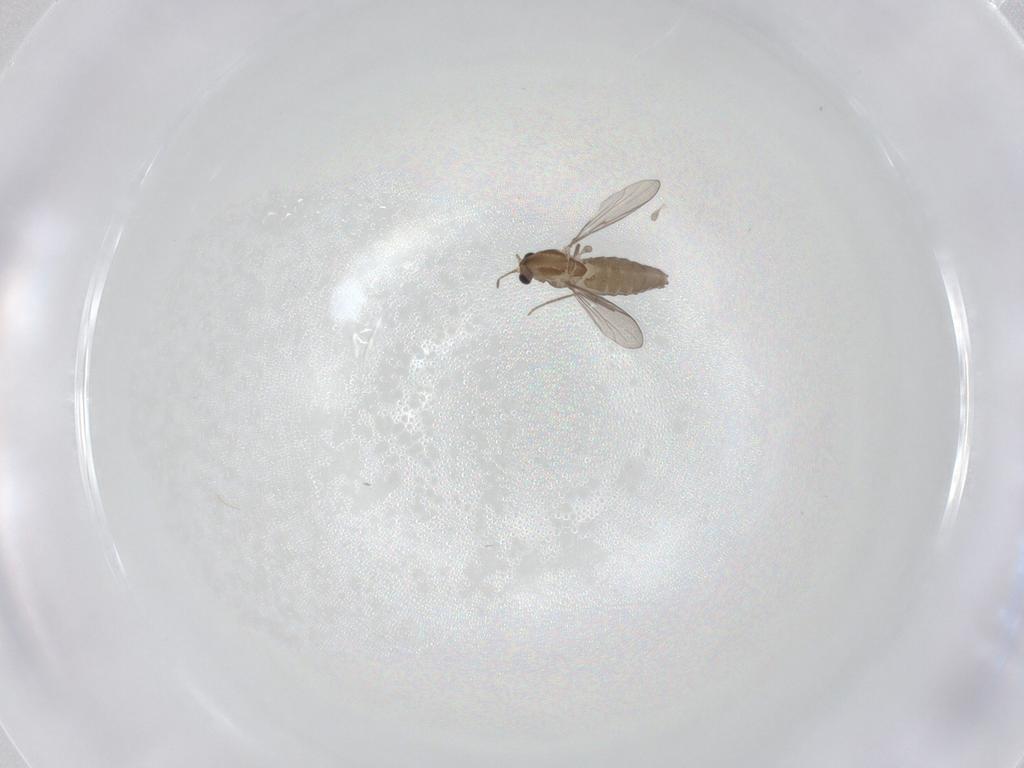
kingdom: Animalia
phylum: Arthropoda
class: Insecta
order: Diptera
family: Chironomidae
